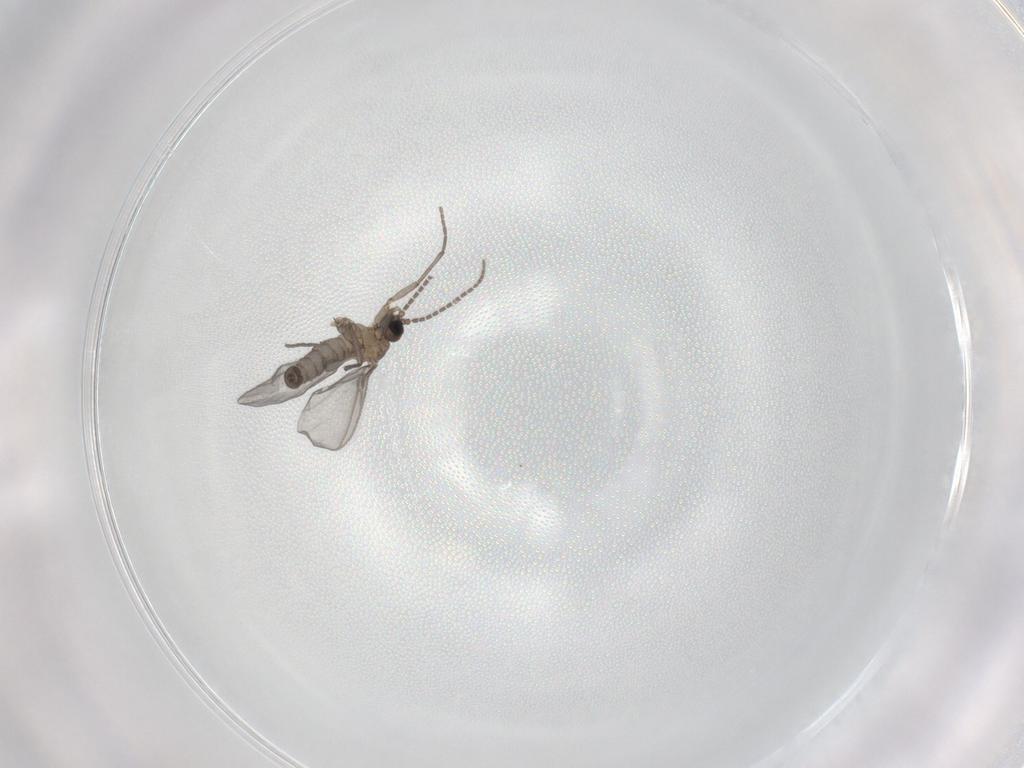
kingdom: Animalia
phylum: Arthropoda
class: Insecta
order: Diptera
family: Sciaridae
